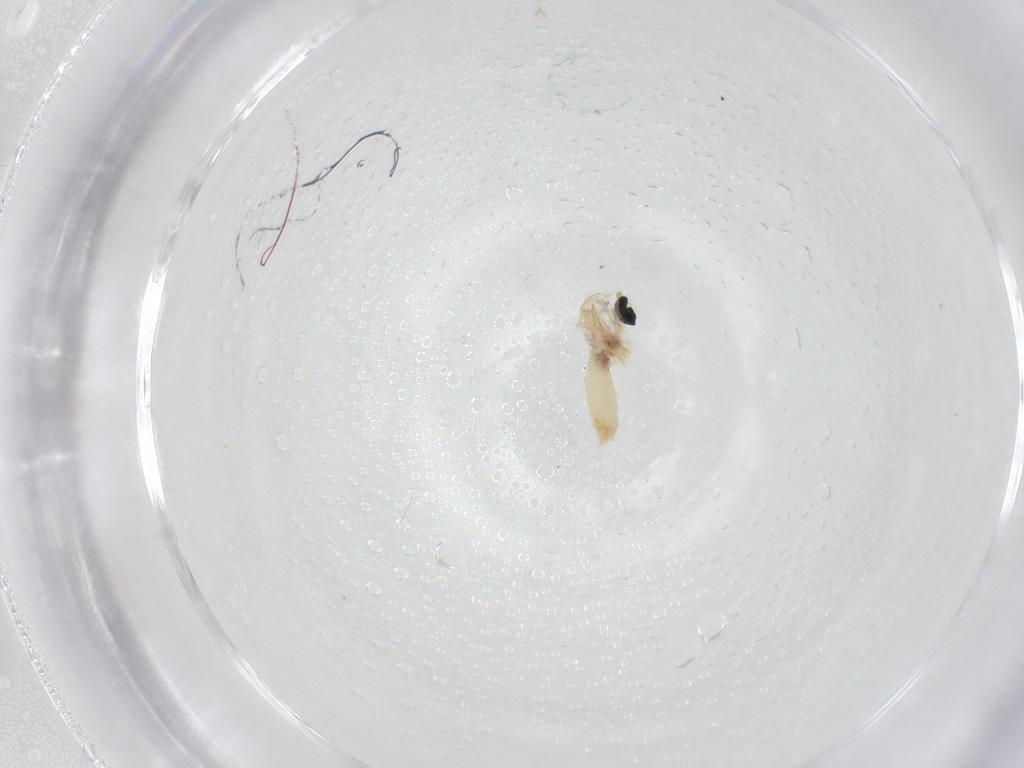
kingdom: Animalia
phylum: Arthropoda
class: Insecta
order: Diptera
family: Cecidomyiidae
